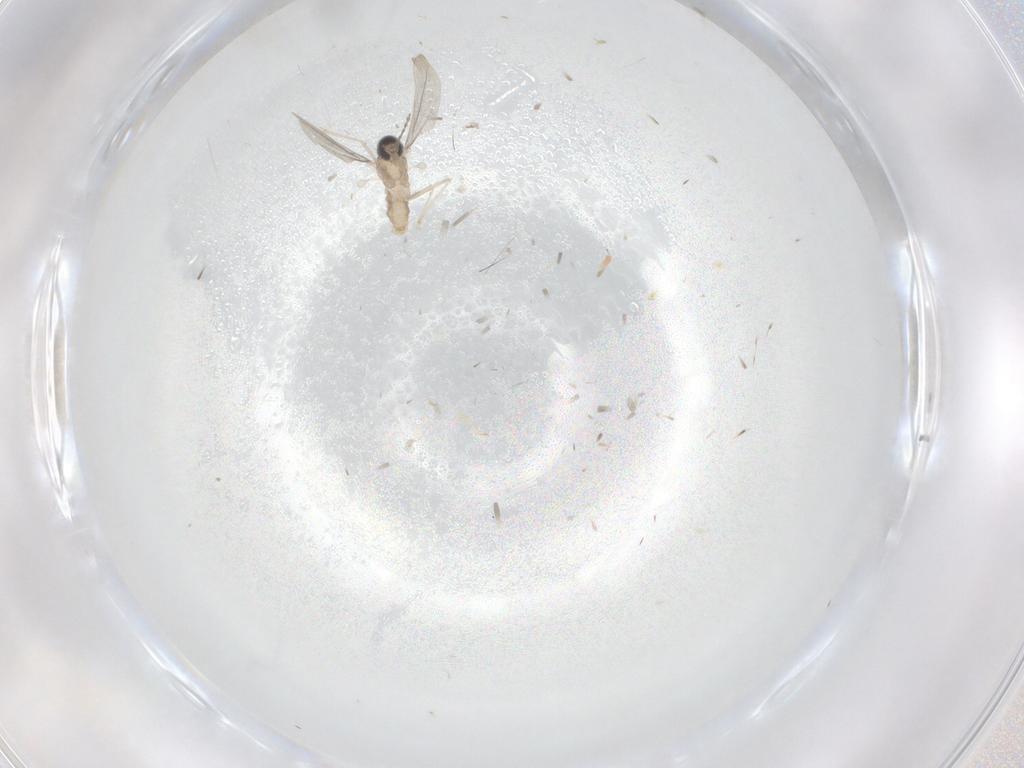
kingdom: Animalia
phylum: Arthropoda
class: Insecta
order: Diptera
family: Cecidomyiidae
